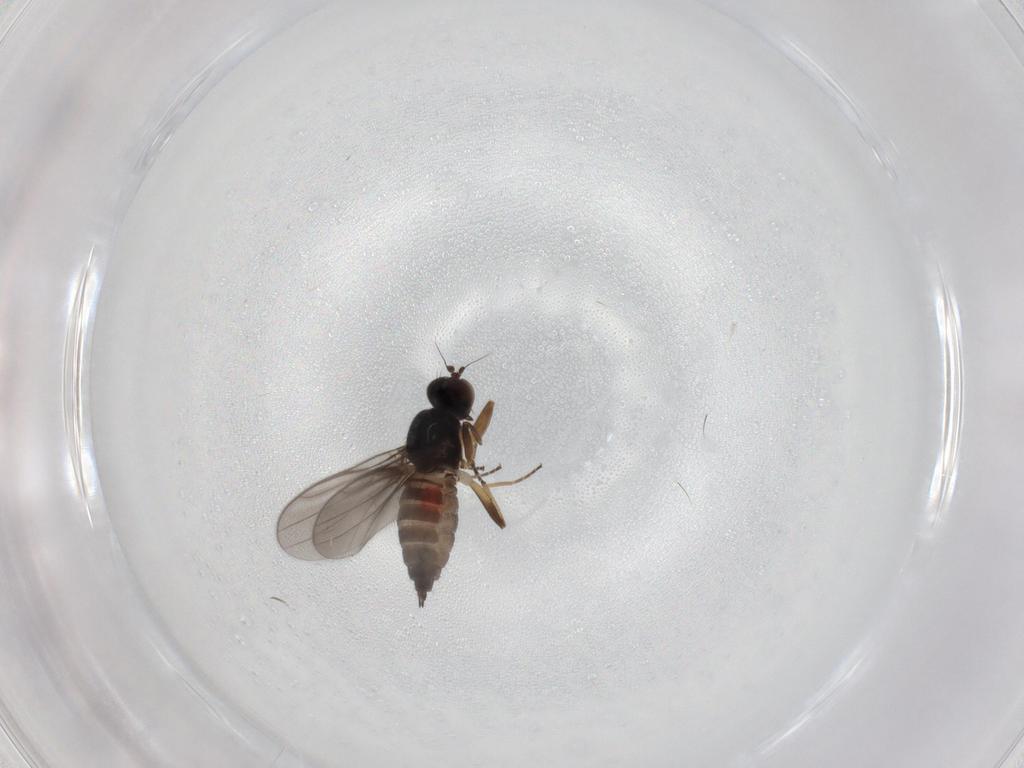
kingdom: Animalia
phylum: Arthropoda
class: Insecta
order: Diptera
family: Hybotidae
